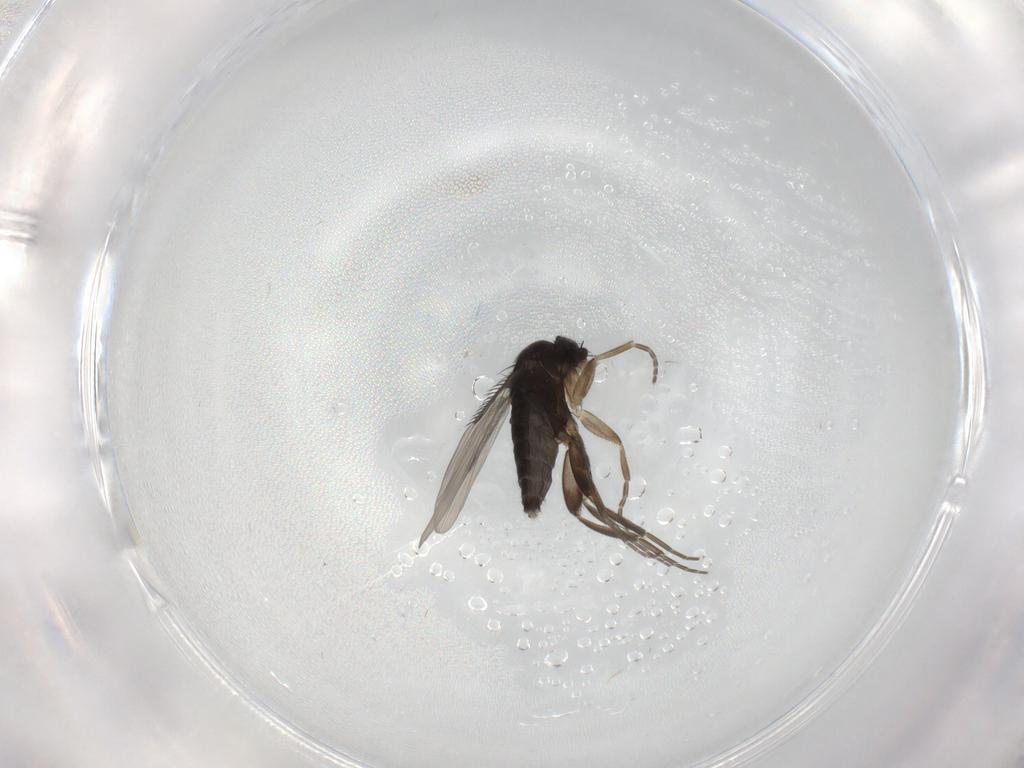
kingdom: Animalia
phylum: Arthropoda
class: Insecta
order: Diptera
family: Phoridae
